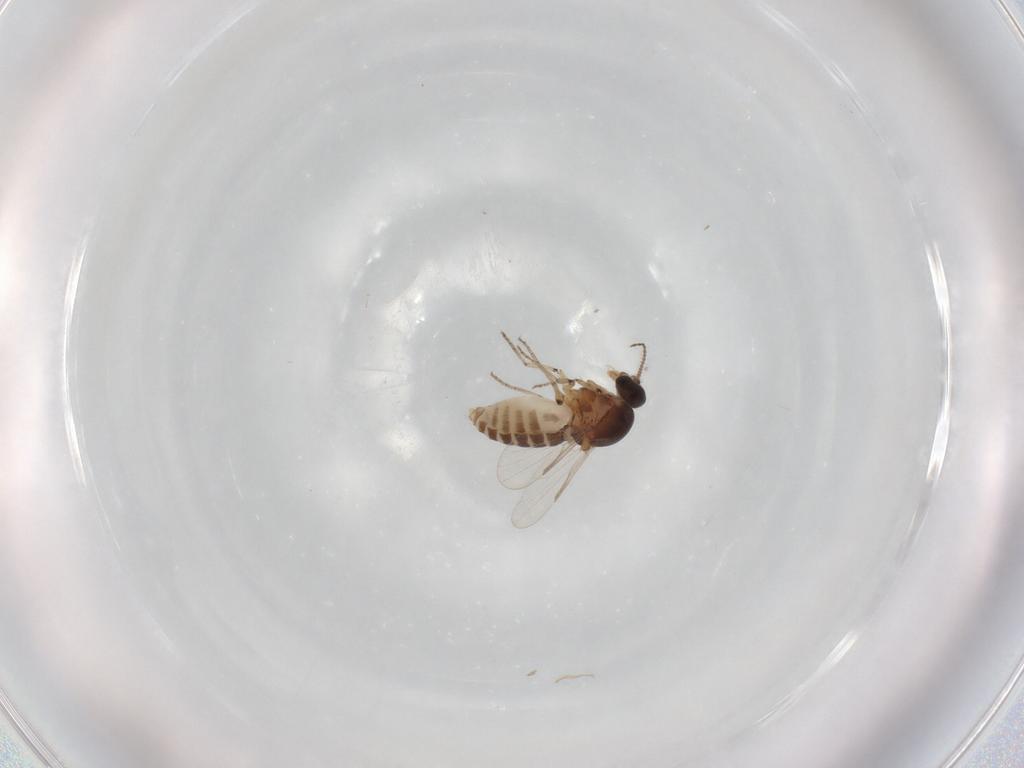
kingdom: Animalia
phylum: Arthropoda
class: Insecta
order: Diptera
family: Ceratopogonidae
